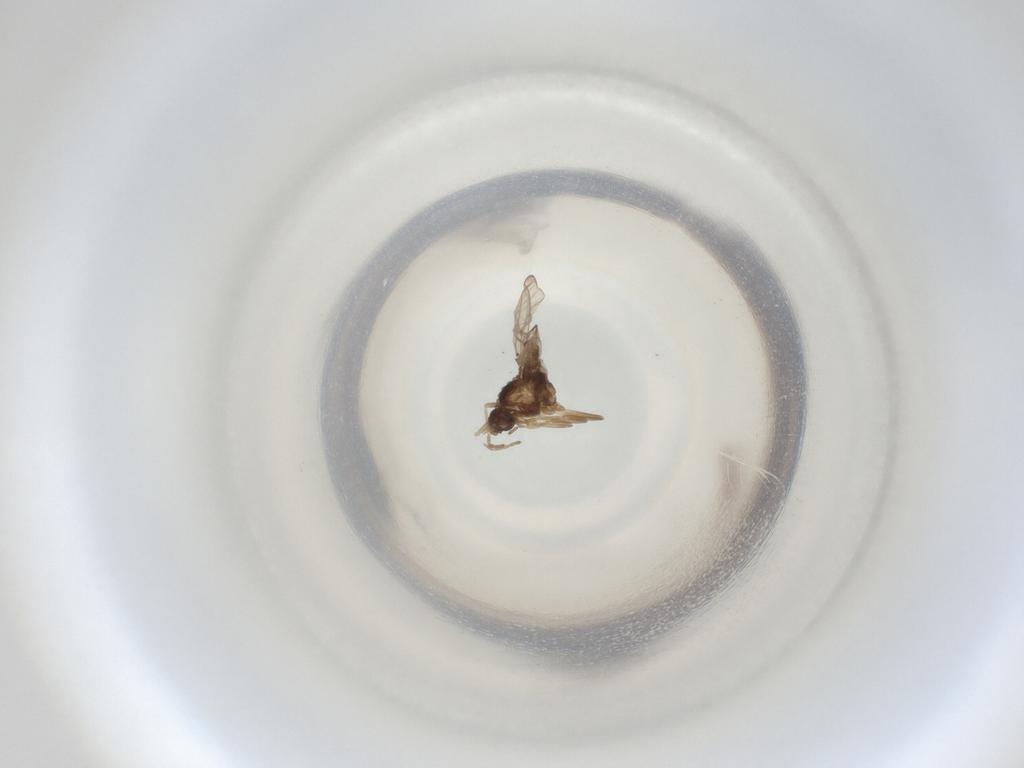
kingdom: Animalia
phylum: Arthropoda
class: Insecta
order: Diptera
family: Cecidomyiidae
